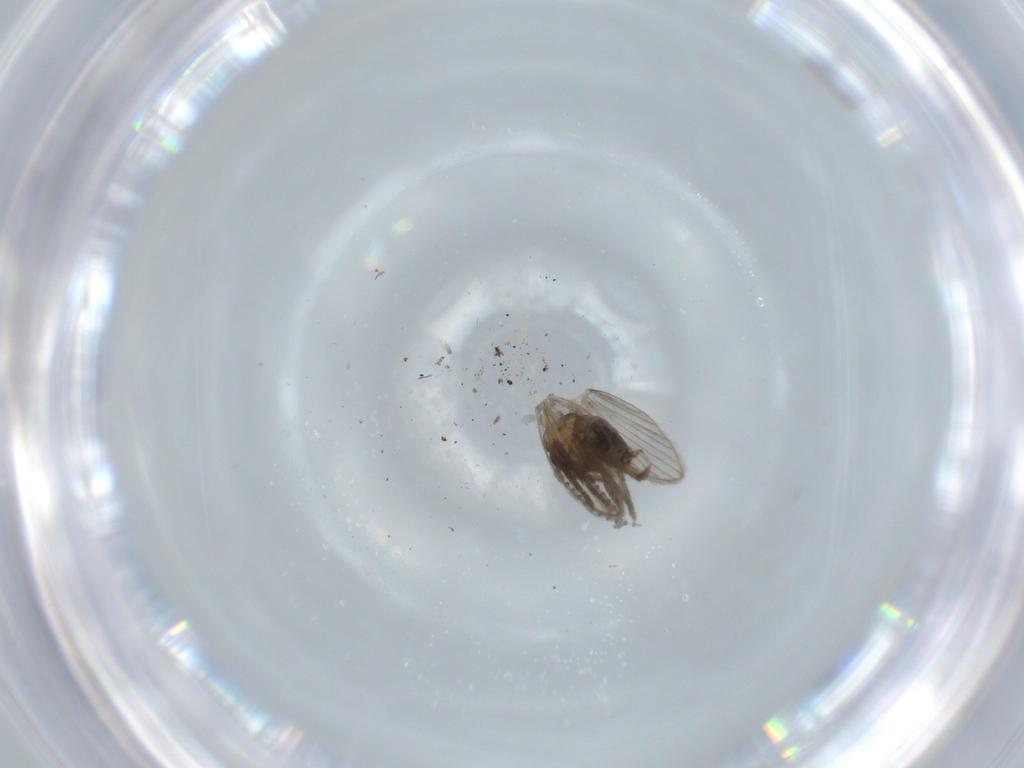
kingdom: Animalia
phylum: Arthropoda
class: Insecta
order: Diptera
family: Psychodidae
